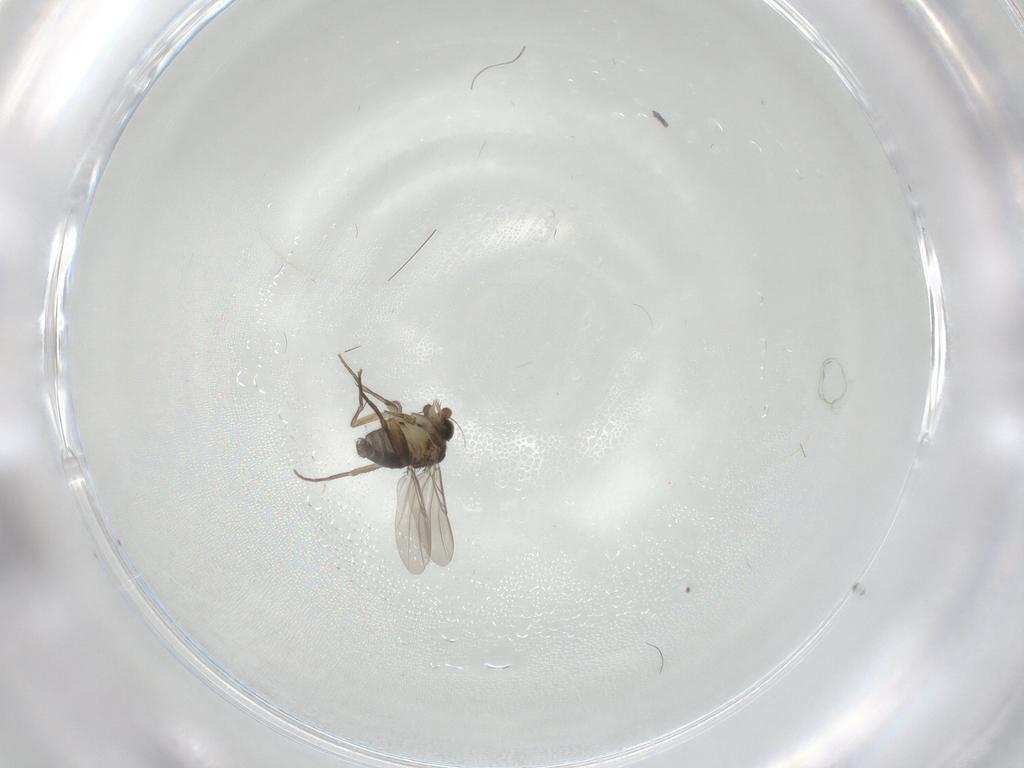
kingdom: Animalia
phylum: Arthropoda
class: Insecta
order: Diptera
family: Phoridae
